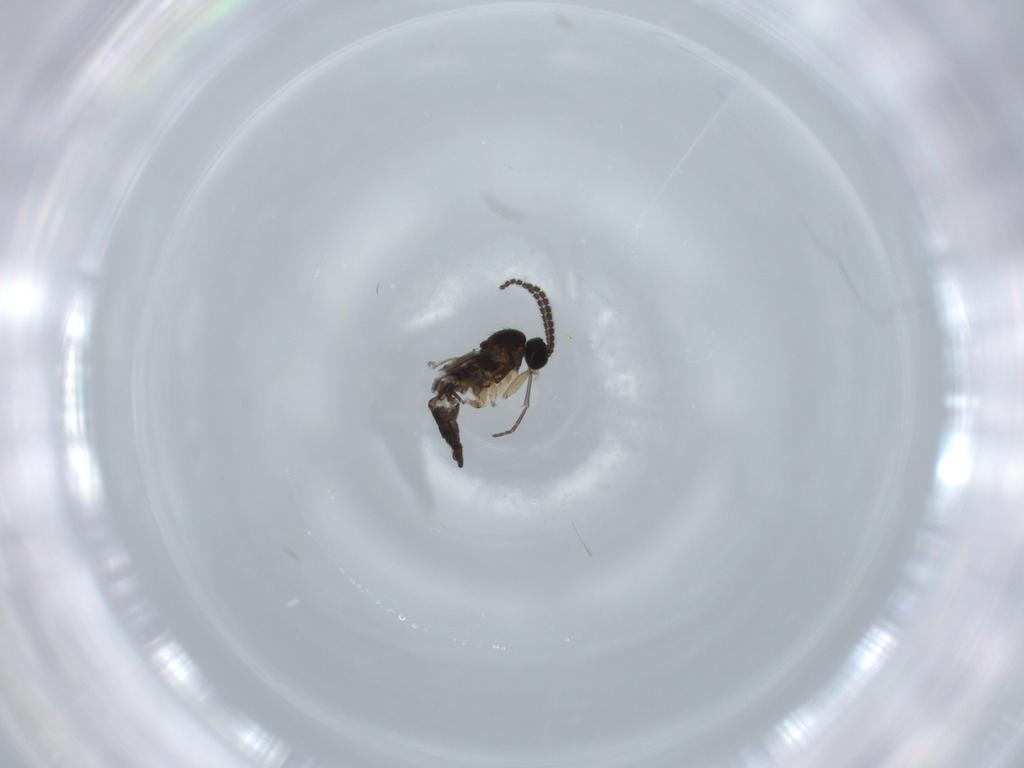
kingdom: Animalia
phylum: Arthropoda
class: Insecta
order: Diptera
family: Sciaridae
